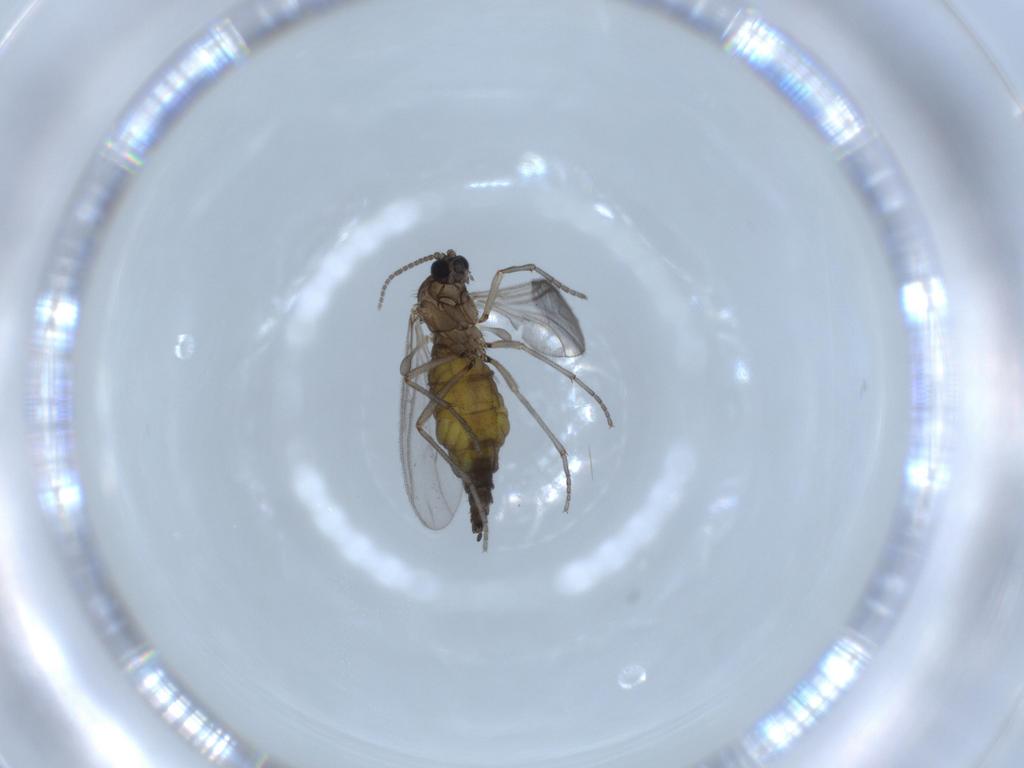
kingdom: Animalia
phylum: Arthropoda
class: Insecta
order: Diptera
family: Sciaridae
